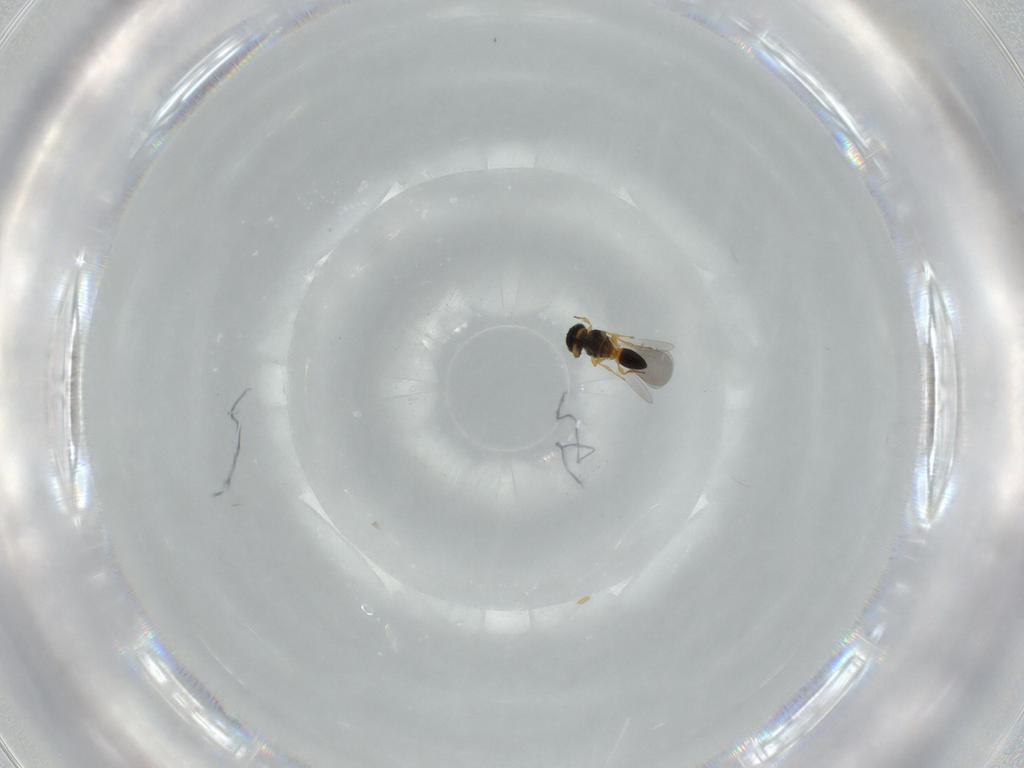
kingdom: Animalia
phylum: Arthropoda
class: Insecta
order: Hymenoptera
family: Platygastridae
